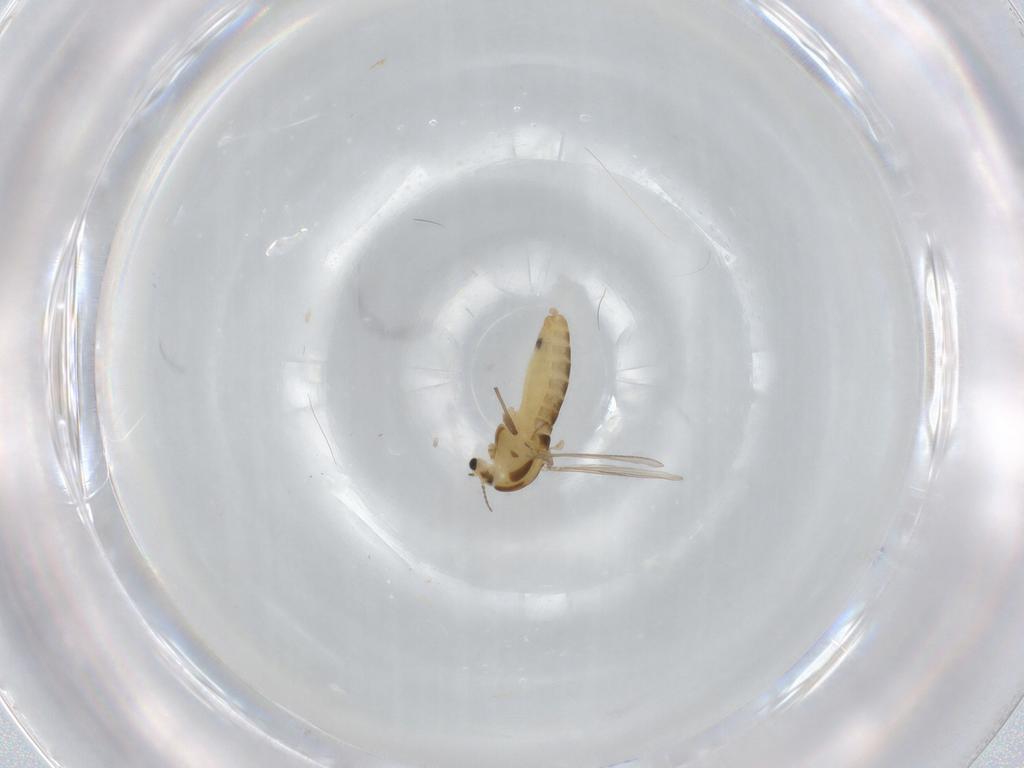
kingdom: Animalia
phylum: Arthropoda
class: Insecta
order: Diptera
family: Chironomidae
